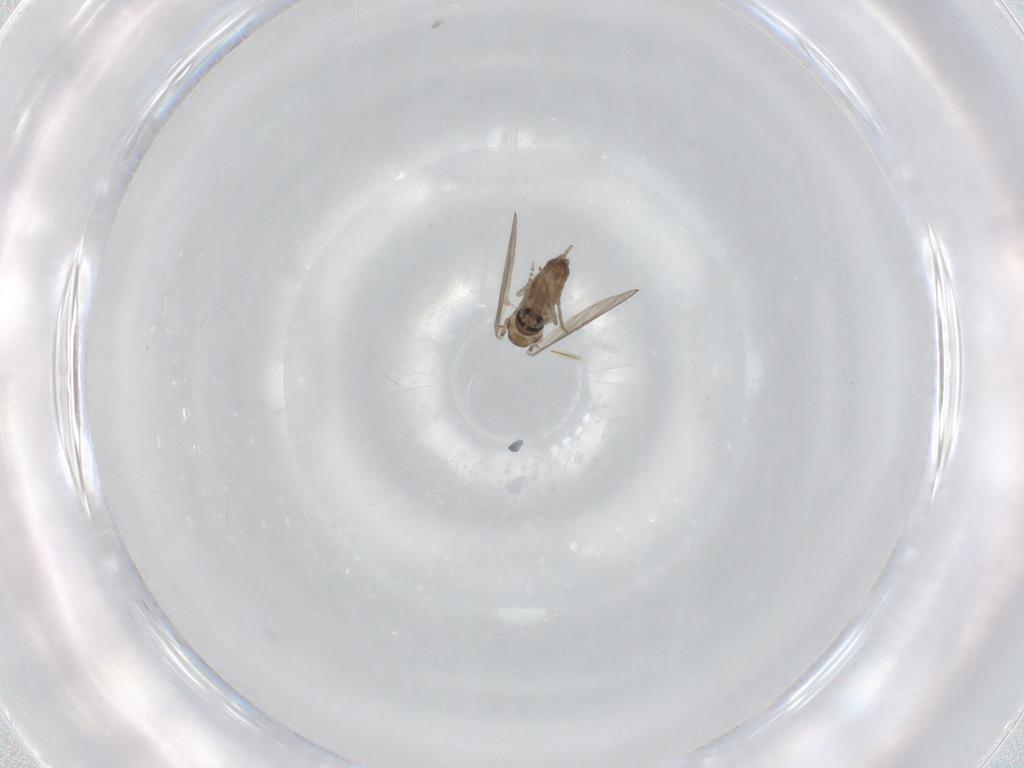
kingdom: Animalia
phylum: Arthropoda
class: Insecta
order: Diptera
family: Psychodidae
